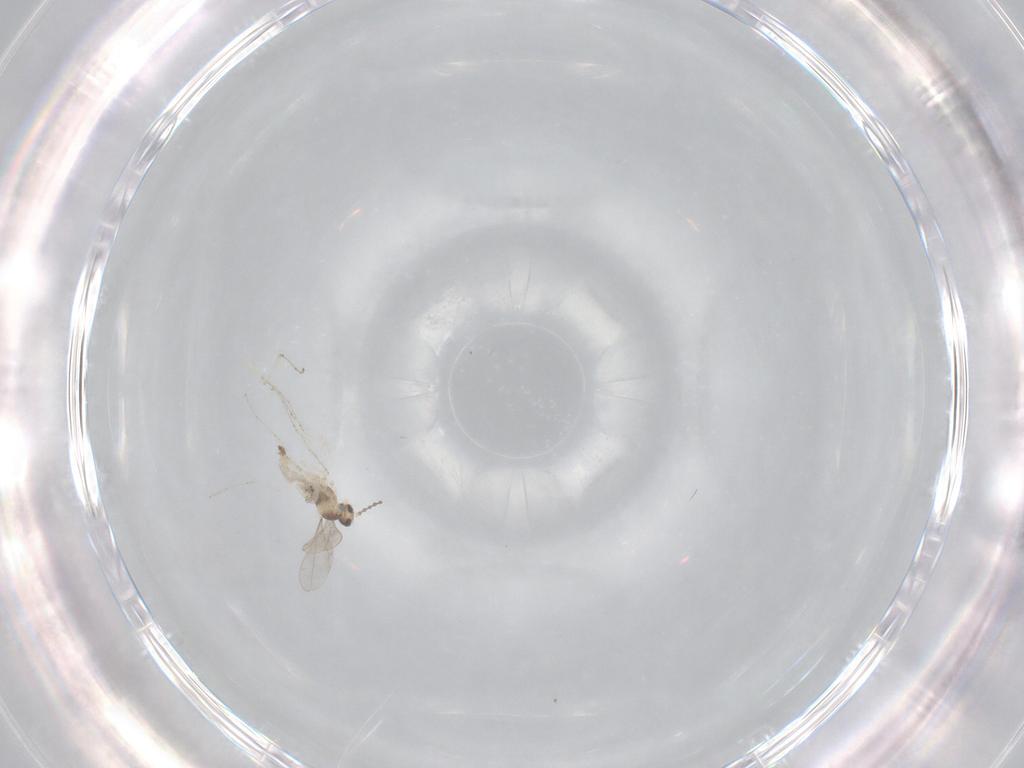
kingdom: Animalia
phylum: Arthropoda
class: Insecta
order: Diptera
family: Cecidomyiidae
